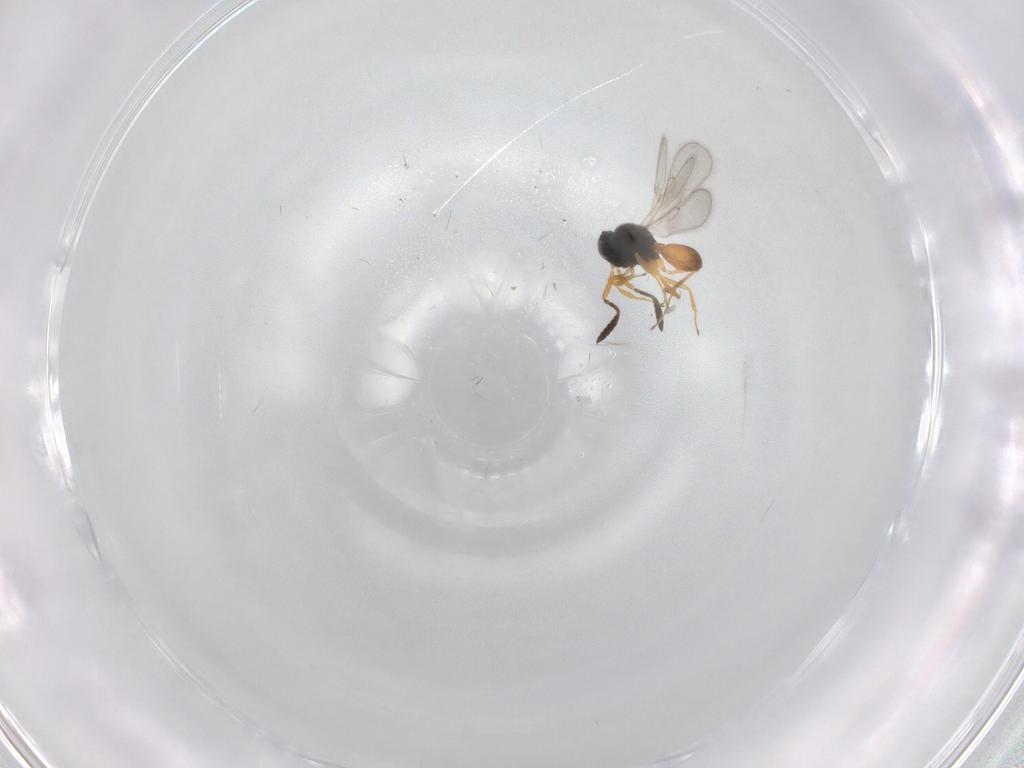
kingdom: Animalia
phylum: Arthropoda
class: Insecta
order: Hymenoptera
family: Scelionidae
